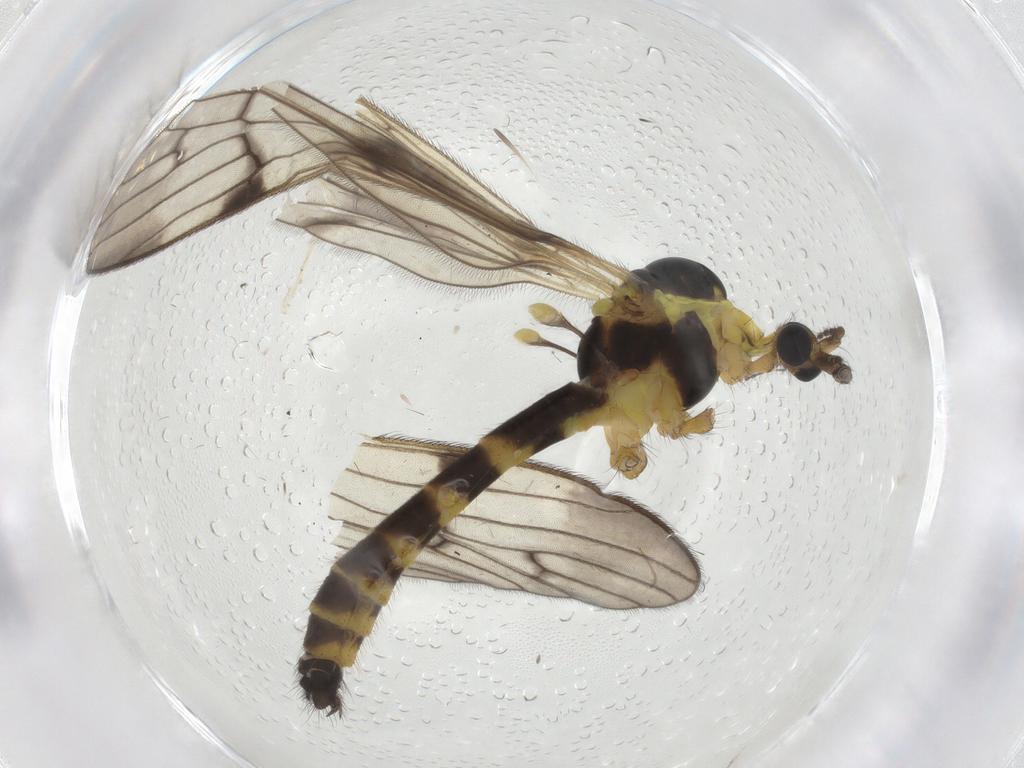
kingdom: Animalia
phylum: Arthropoda
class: Insecta
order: Diptera
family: Limoniidae
